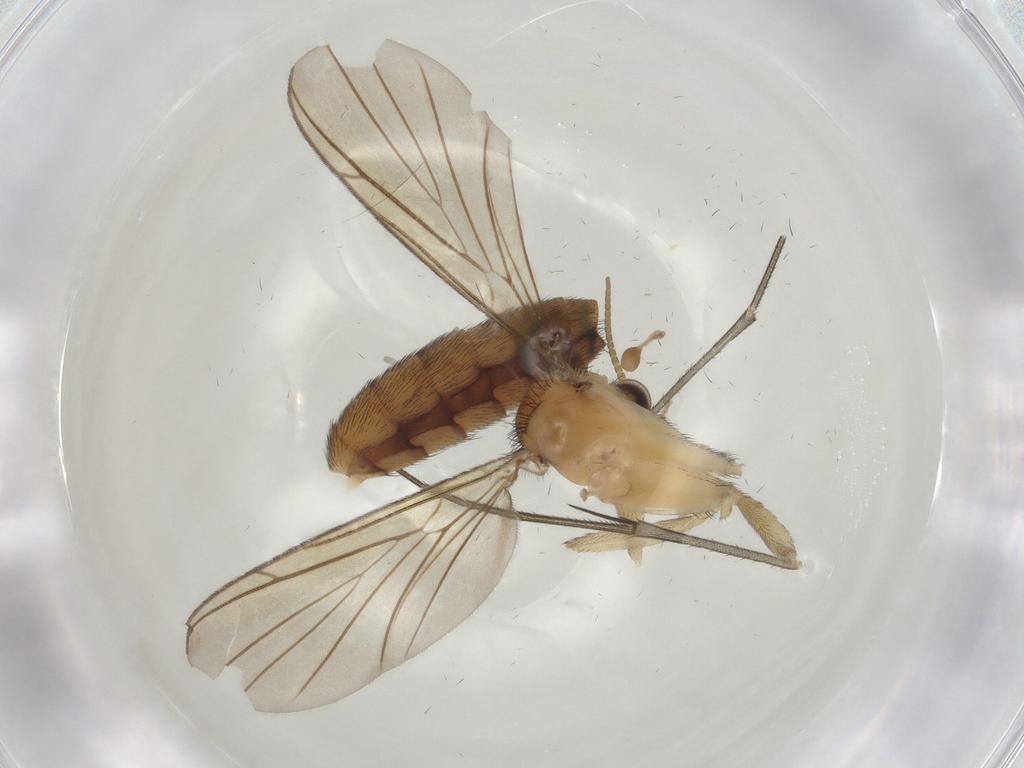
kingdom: Animalia
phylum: Arthropoda
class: Insecta
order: Diptera
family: Keroplatidae
